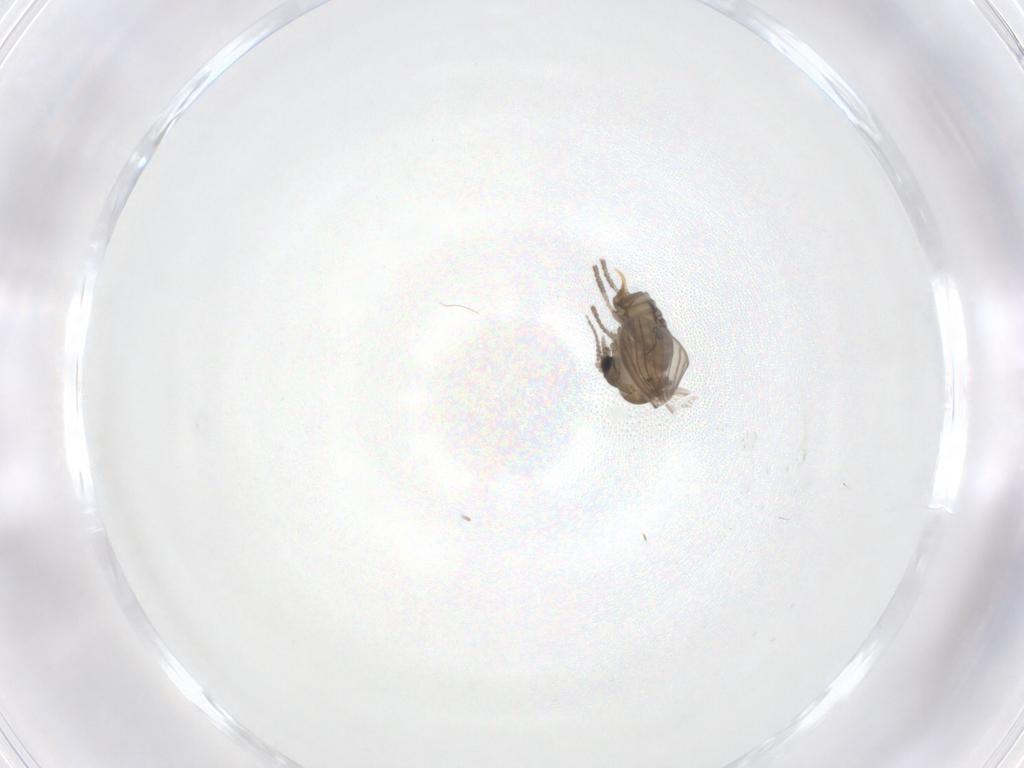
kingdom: Animalia
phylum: Arthropoda
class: Insecta
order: Diptera
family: Psychodidae
